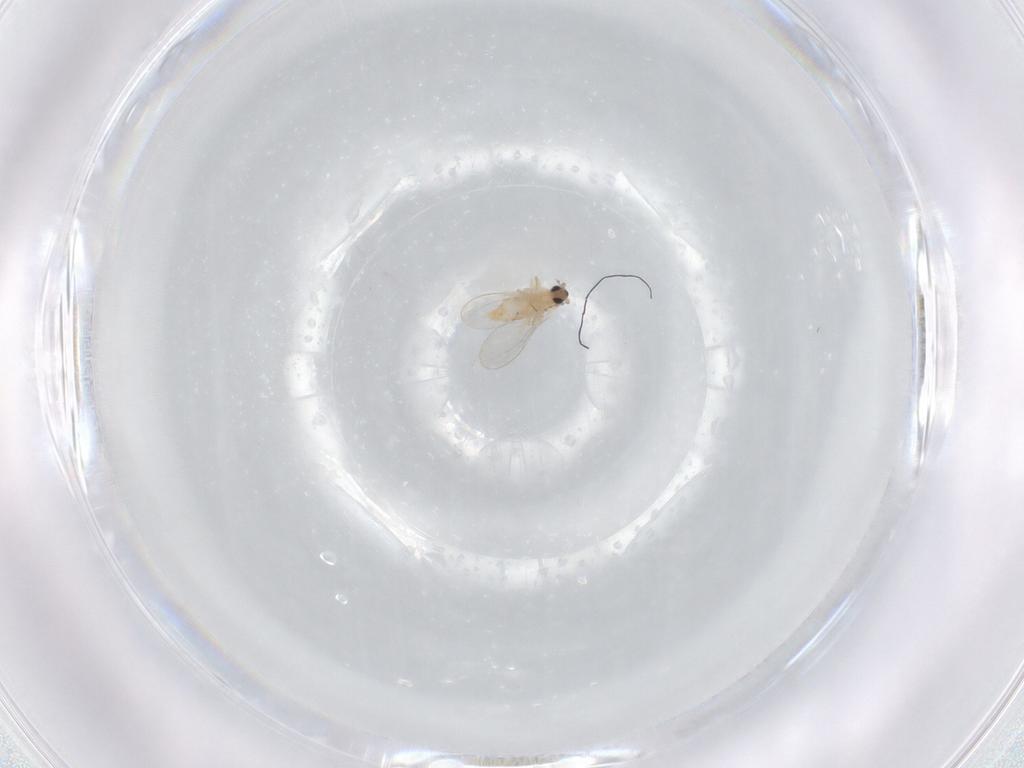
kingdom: Animalia
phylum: Arthropoda
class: Insecta
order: Diptera
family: Cecidomyiidae
